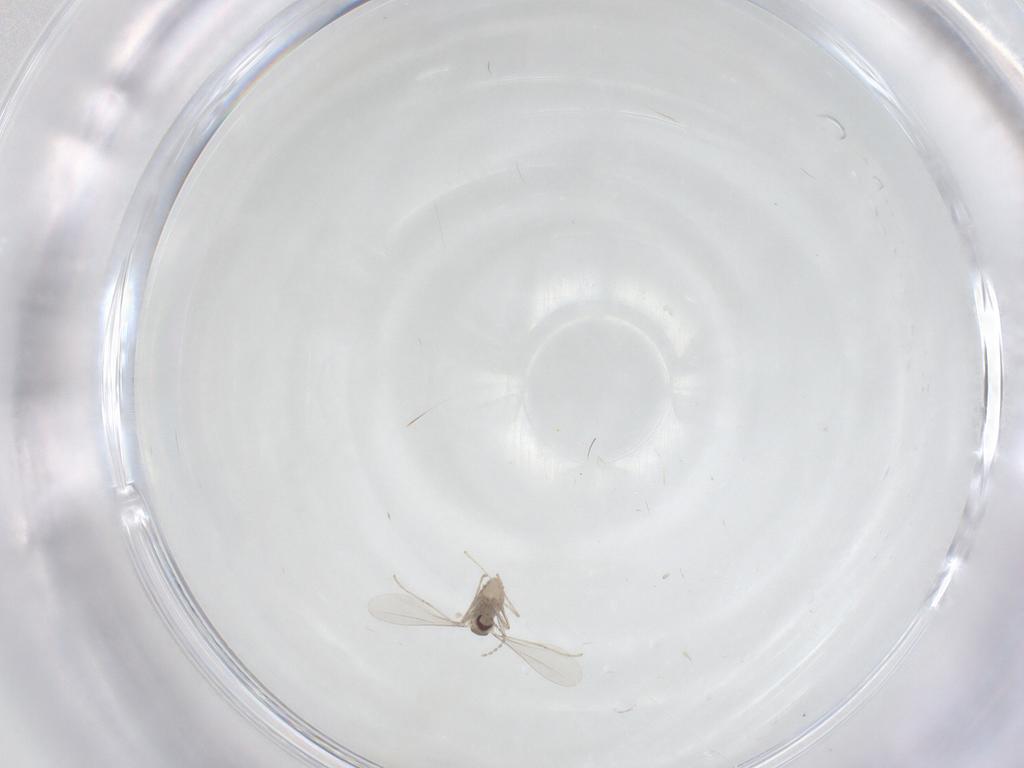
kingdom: Animalia
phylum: Arthropoda
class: Insecta
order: Diptera
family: Cecidomyiidae
